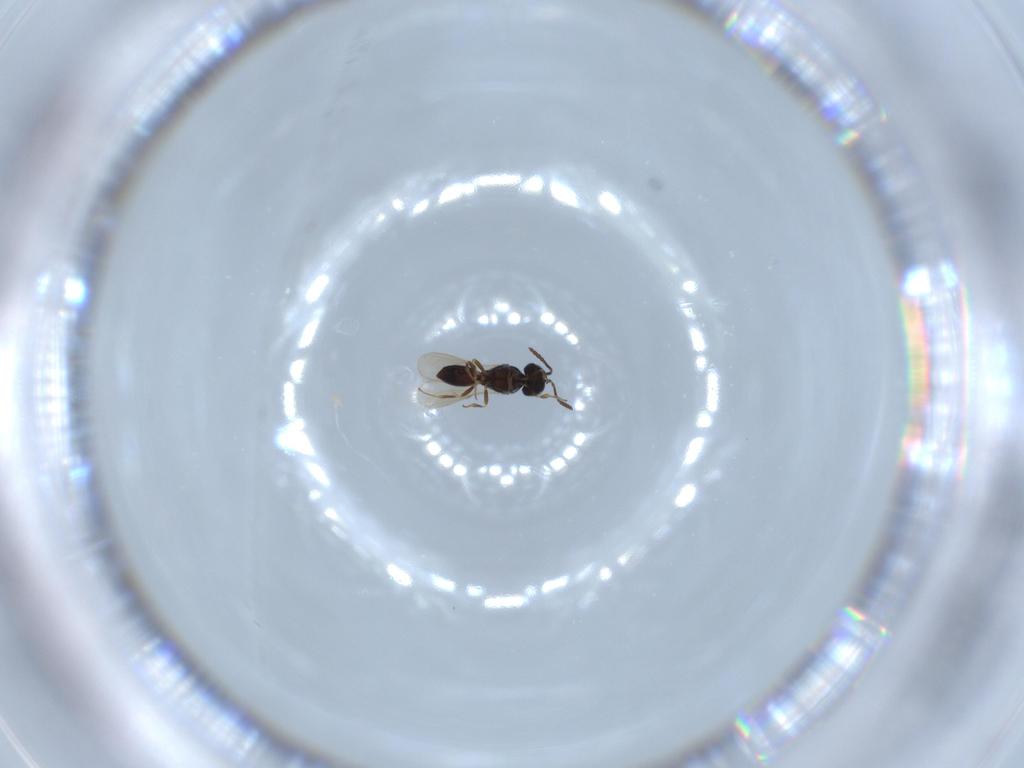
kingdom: Animalia
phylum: Arthropoda
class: Insecta
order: Hymenoptera
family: Scelionidae
